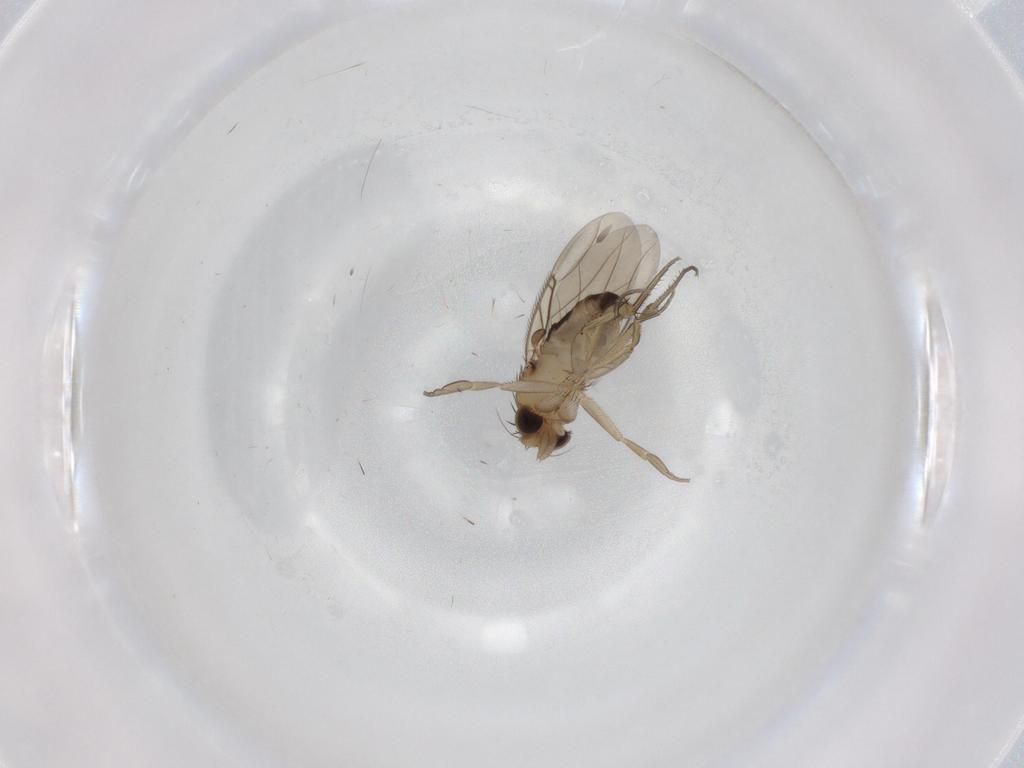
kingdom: Animalia
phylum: Arthropoda
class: Insecta
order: Diptera
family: Phoridae
